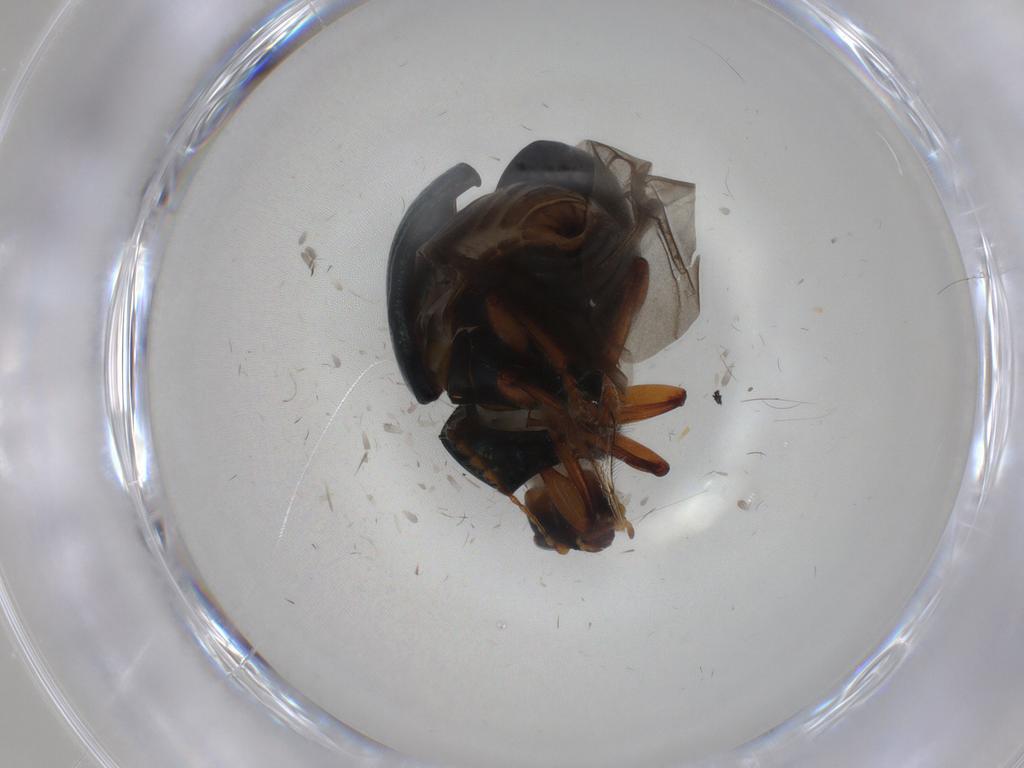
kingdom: Animalia
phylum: Arthropoda
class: Insecta
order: Coleoptera
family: Chrysomelidae
